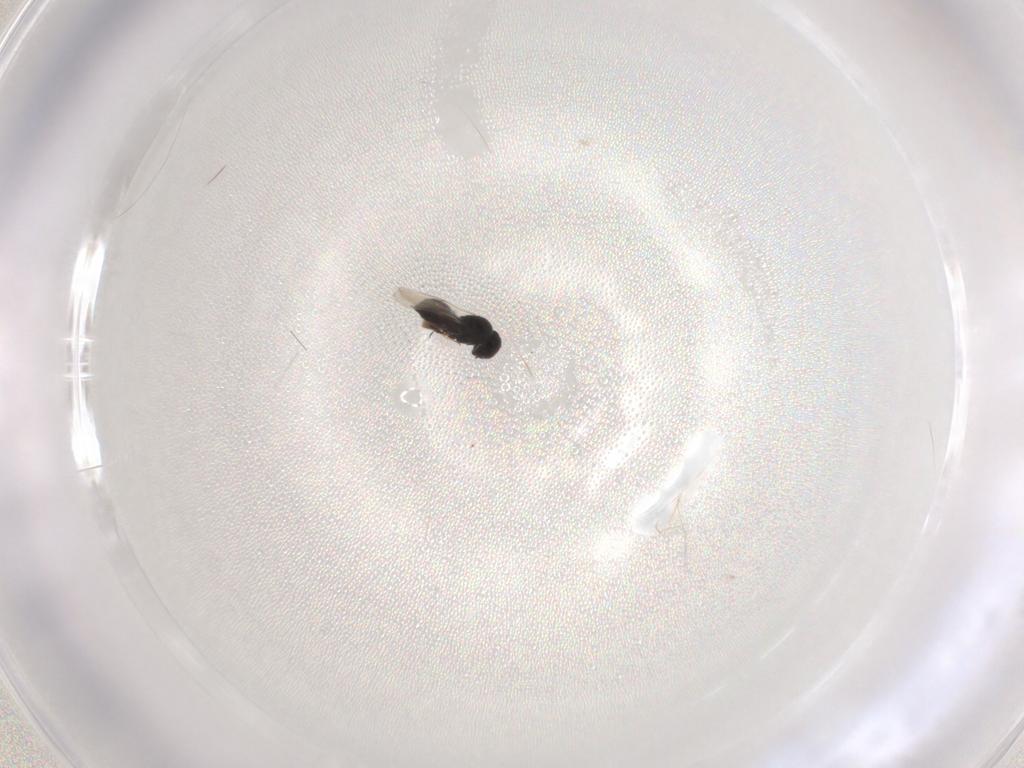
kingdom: Animalia
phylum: Arthropoda
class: Insecta
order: Hymenoptera
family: Scelionidae
